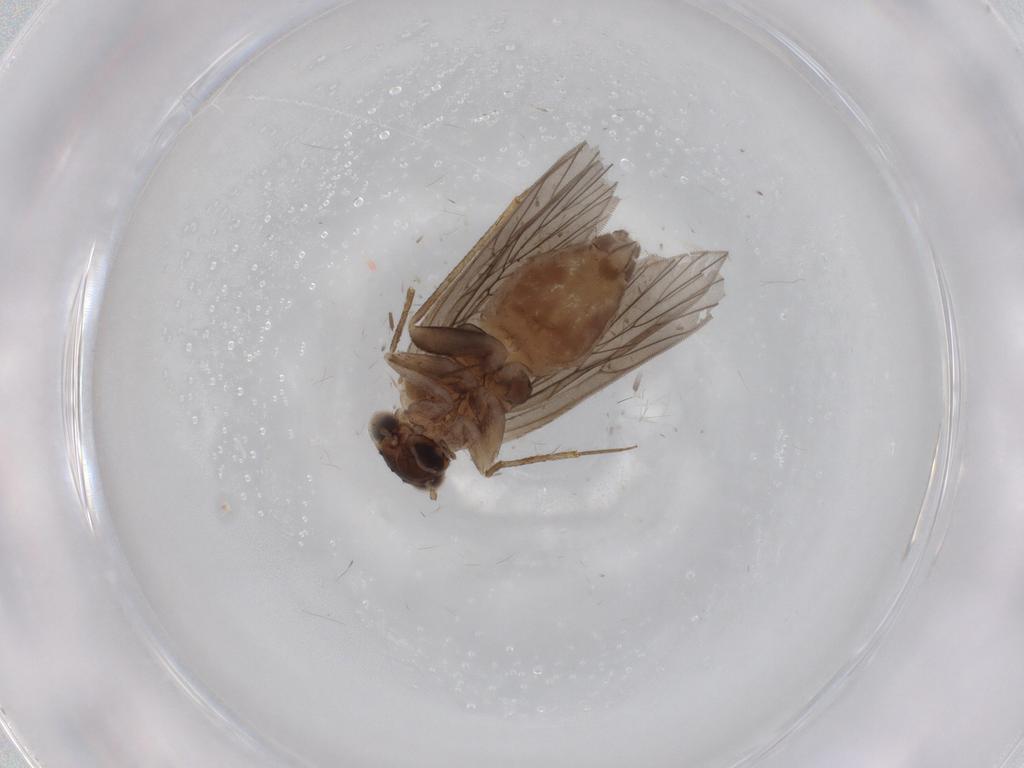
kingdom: Animalia
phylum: Arthropoda
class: Insecta
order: Psocodea
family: Lepidopsocidae
